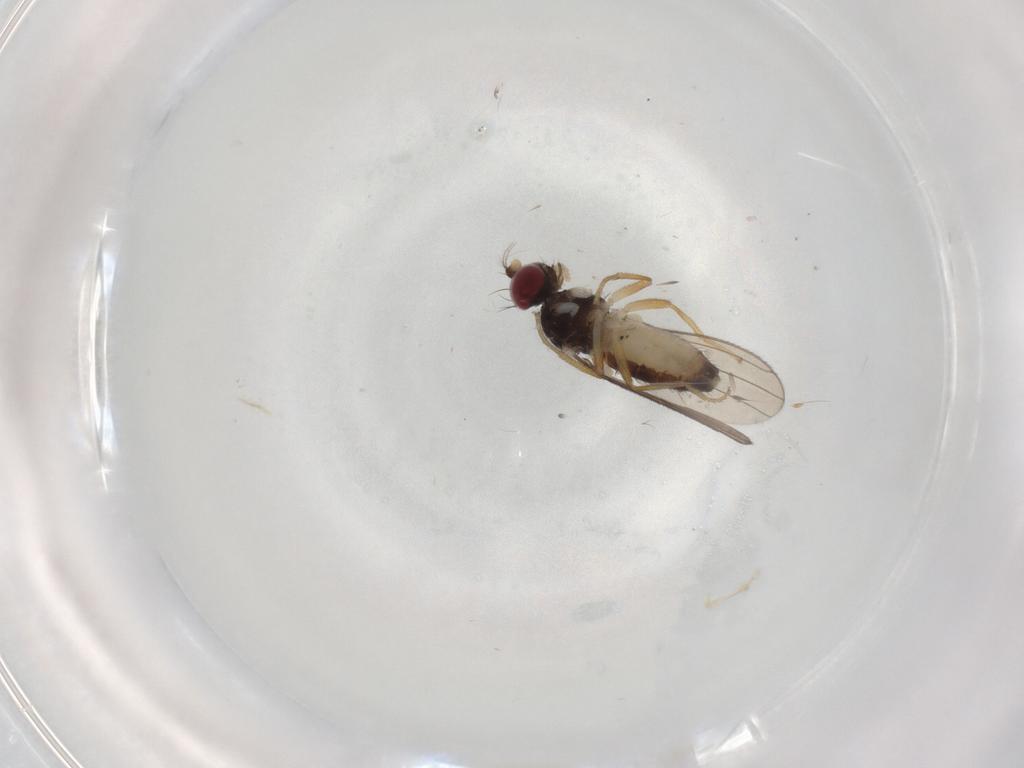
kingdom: Animalia
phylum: Arthropoda
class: Insecta
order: Diptera
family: Anthomyzidae
